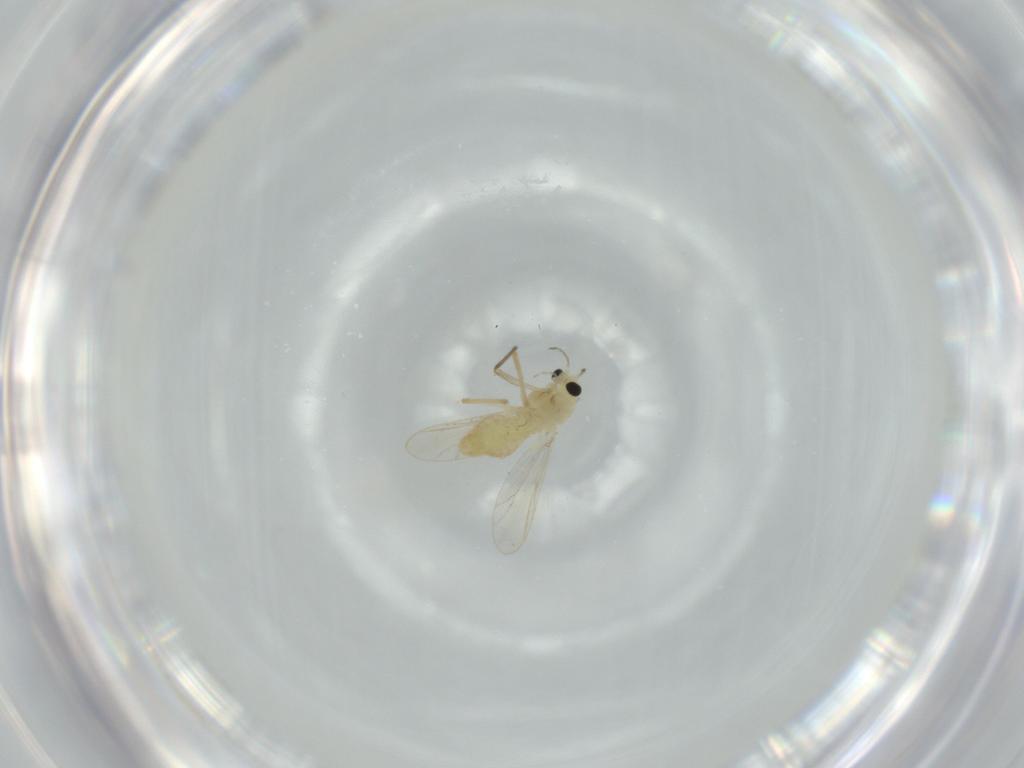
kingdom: Animalia
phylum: Arthropoda
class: Insecta
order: Diptera
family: Chironomidae
